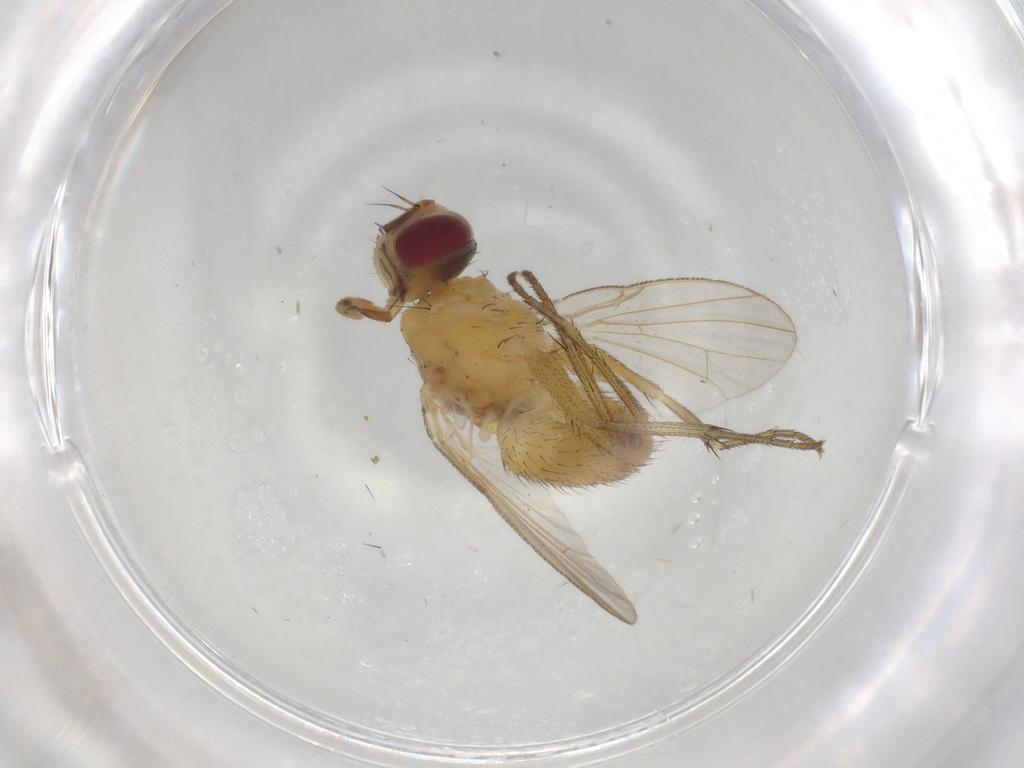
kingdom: Animalia
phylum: Arthropoda
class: Insecta
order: Diptera
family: Muscidae
